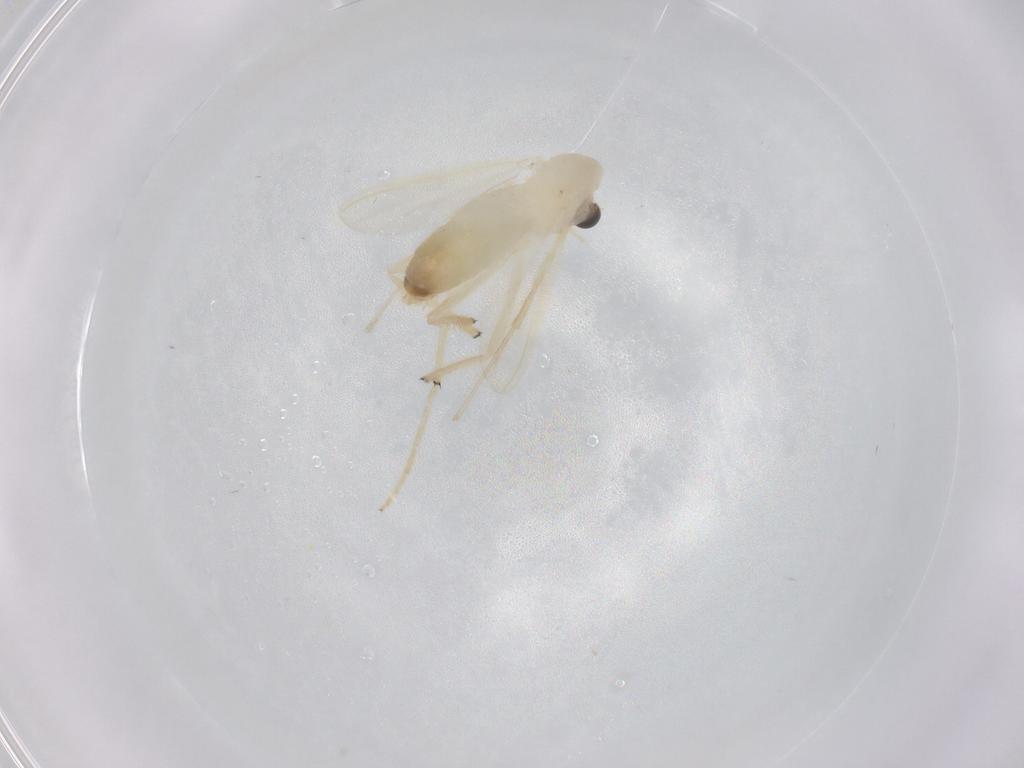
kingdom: Animalia
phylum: Arthropoda
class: Insecta
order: Diptera
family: Chironomidae
